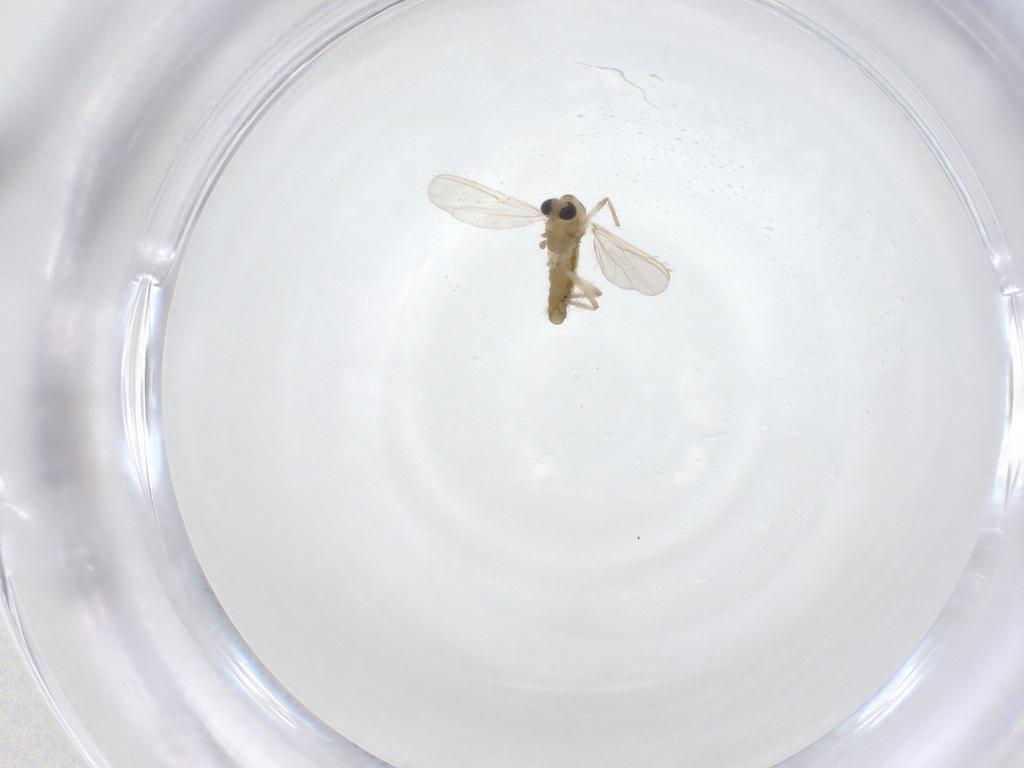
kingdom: Animalia
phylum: Arthropoda
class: Insecta
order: Diptera
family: Chironomidae
